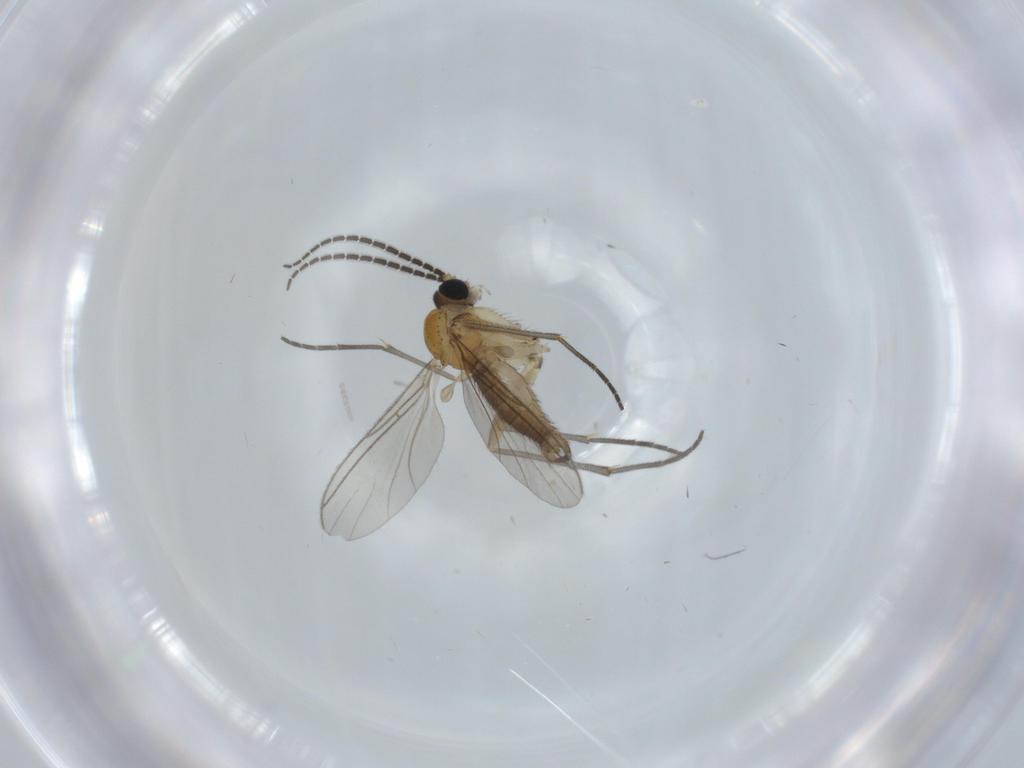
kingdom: Animalia
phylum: Arthropoda
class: Insecta
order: Diptera
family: Sciaridae
